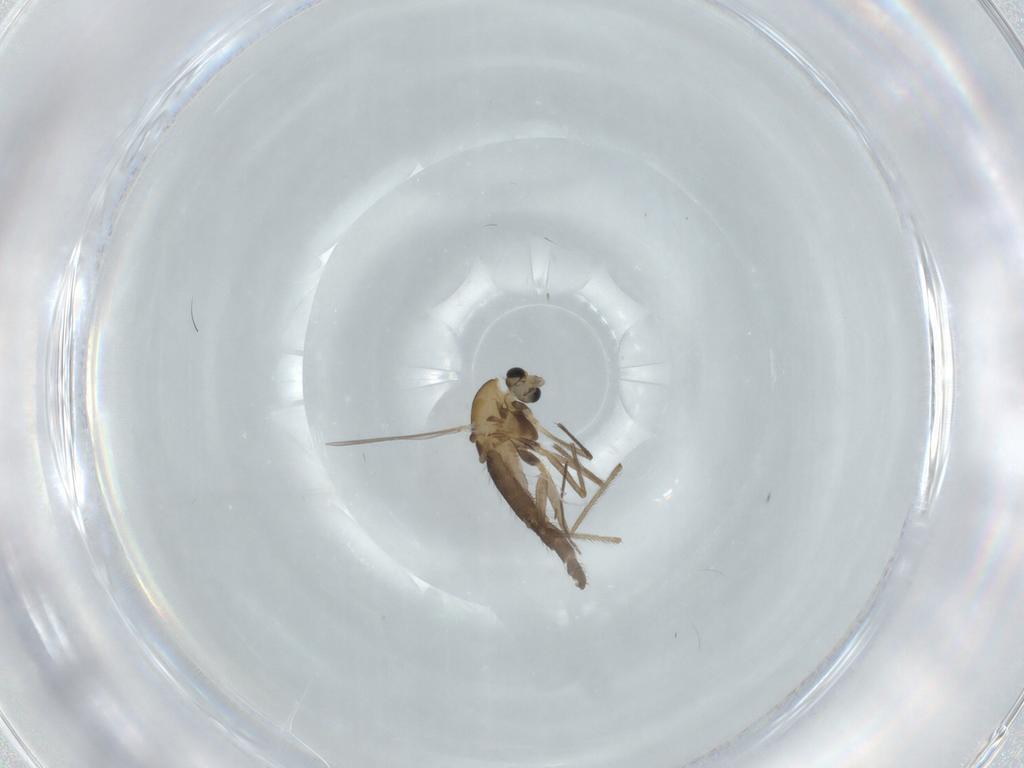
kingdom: Animalia
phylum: Arthropoda
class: Insecta
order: Diptera
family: Chironomidae
